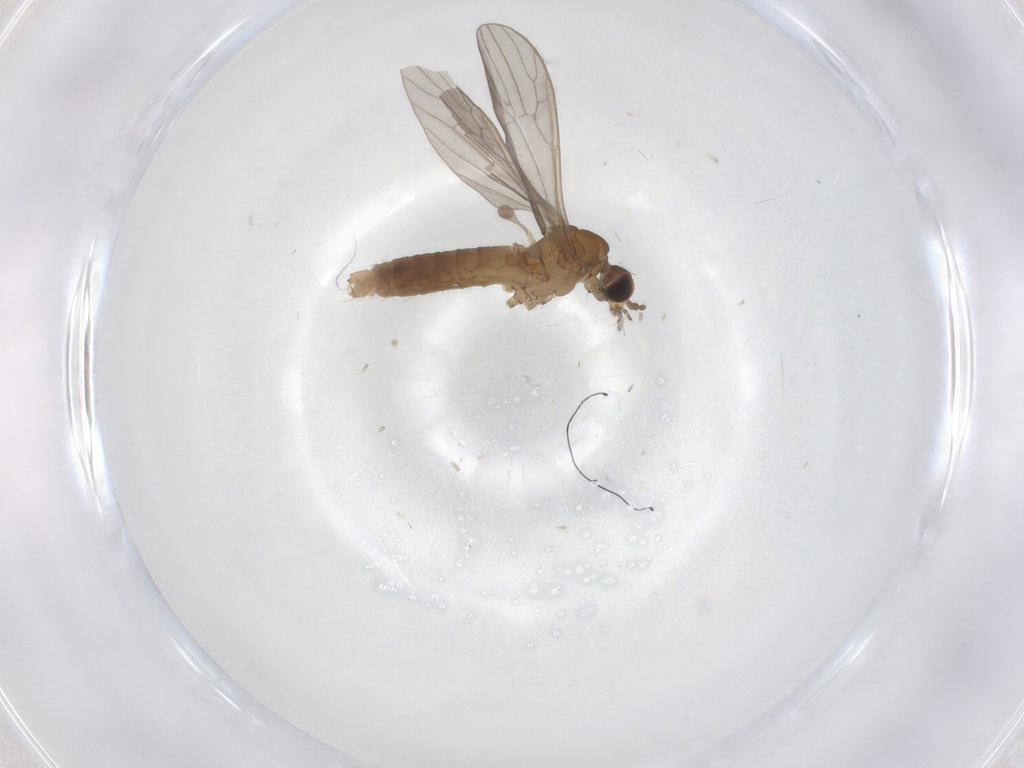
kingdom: Animalia
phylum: Arthropoda
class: Insecta
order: Diptera
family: Limoniidae
